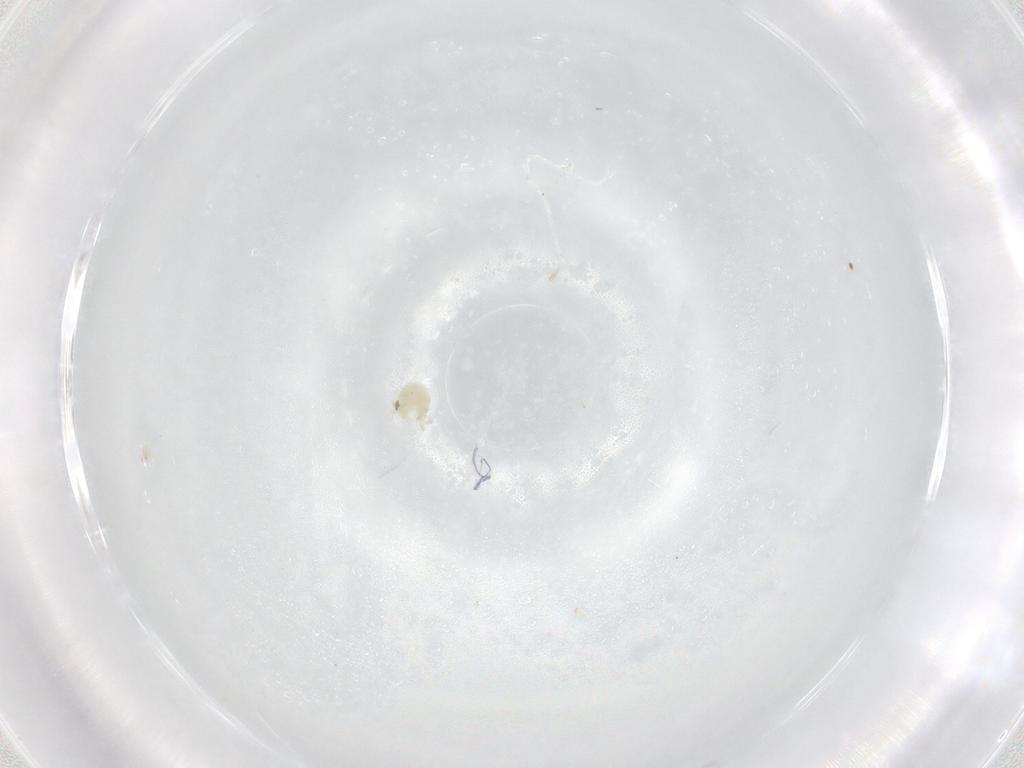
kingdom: Animalia
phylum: Arthropoda
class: Arachnida
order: Trombidiformes
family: Lebertiidae
